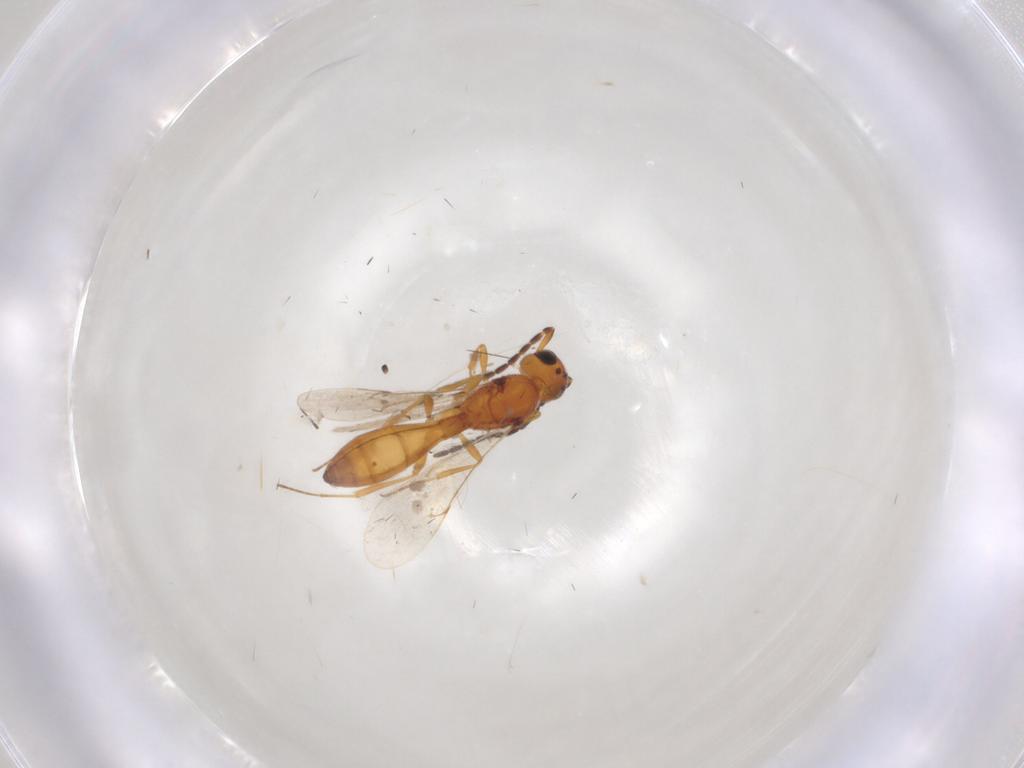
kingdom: Animalia
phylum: Arthropoda
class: Insecta
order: Hymenoptera
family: Scelionidae
